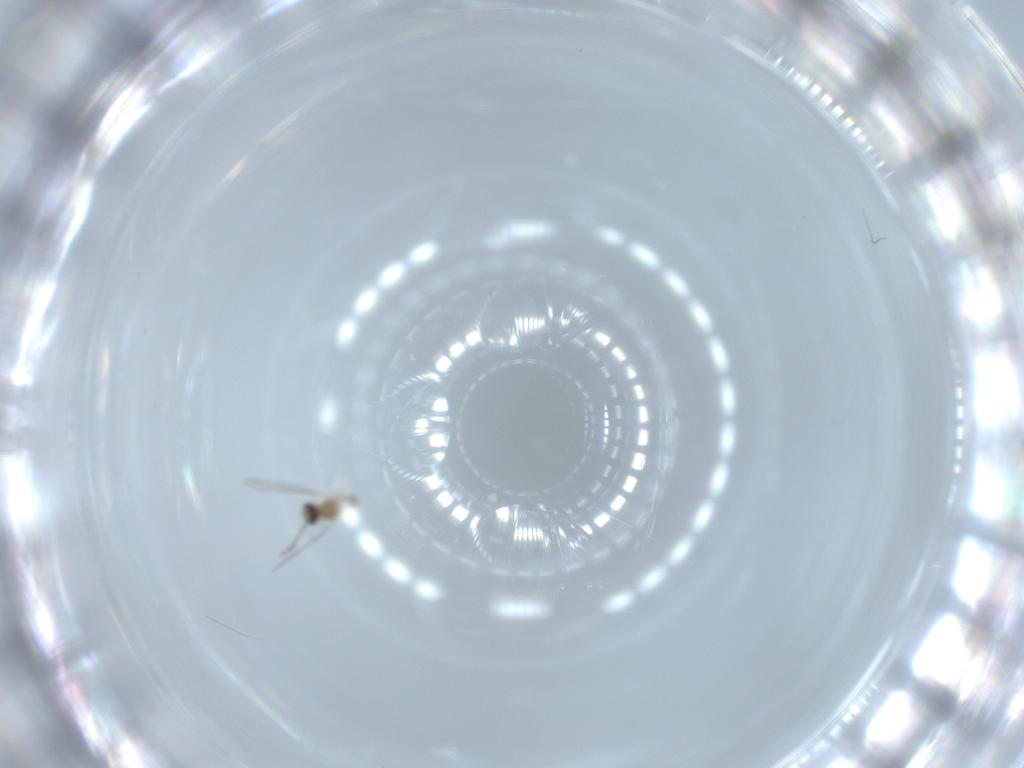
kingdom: Animalia
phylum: Arthropoda
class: Insecta
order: Diptera
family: Cecidomyiidae
